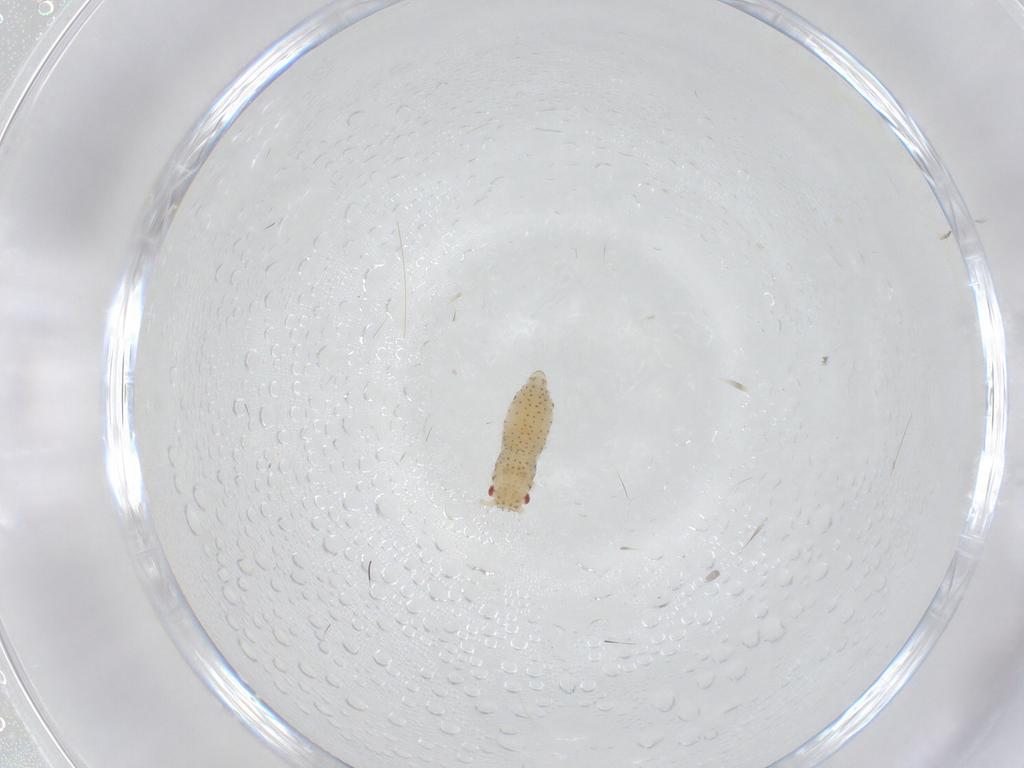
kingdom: Animalia
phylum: Arthropoda
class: Insecta
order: Hemiptera
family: Aphididae
